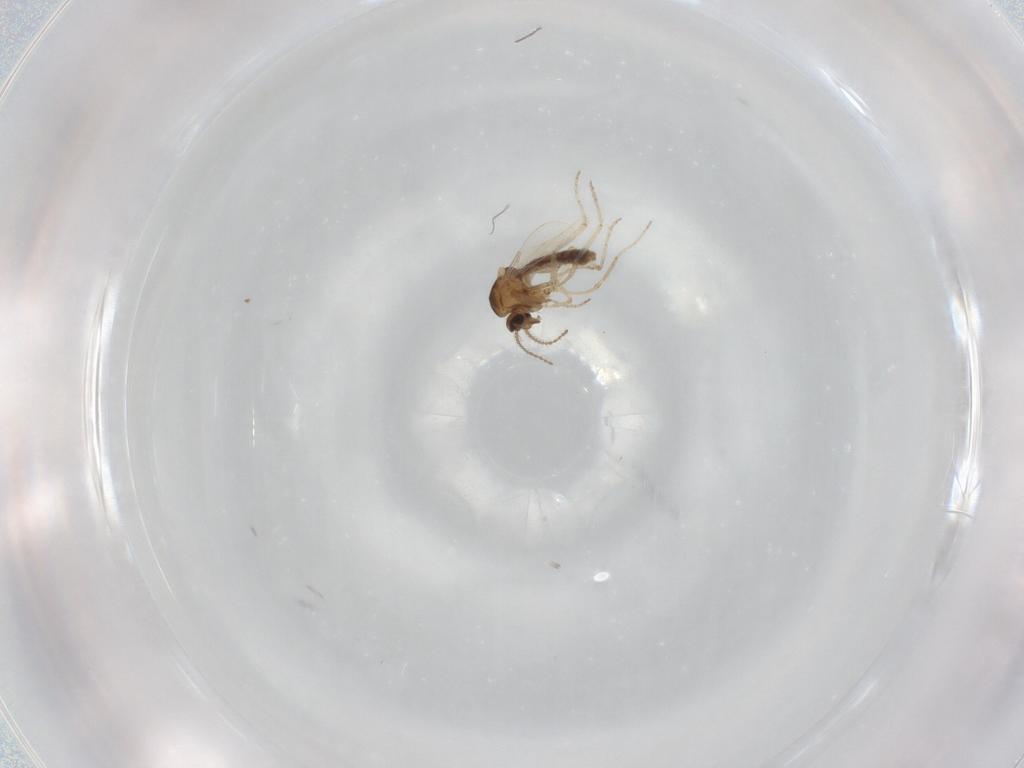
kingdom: Animalia
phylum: Arthropoda
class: Insecta
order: Diptera
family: Ceratopogonidae
